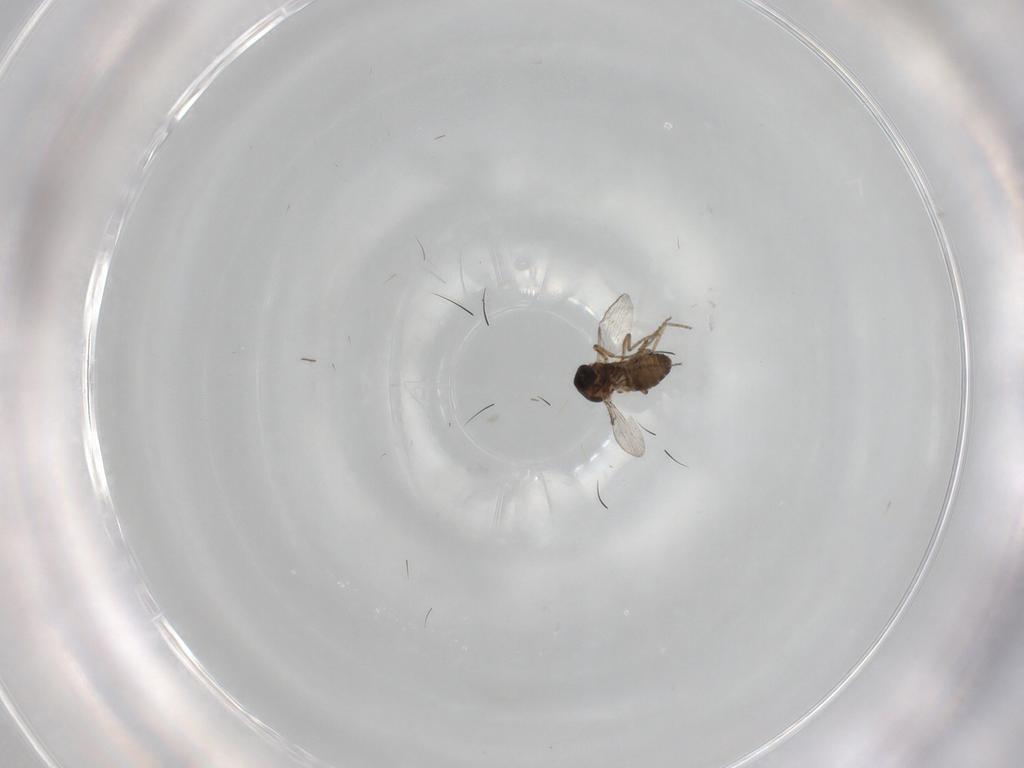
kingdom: Animalia
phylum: Arthropoda
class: Insecta
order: Diptera
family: Ceratopogonidae
